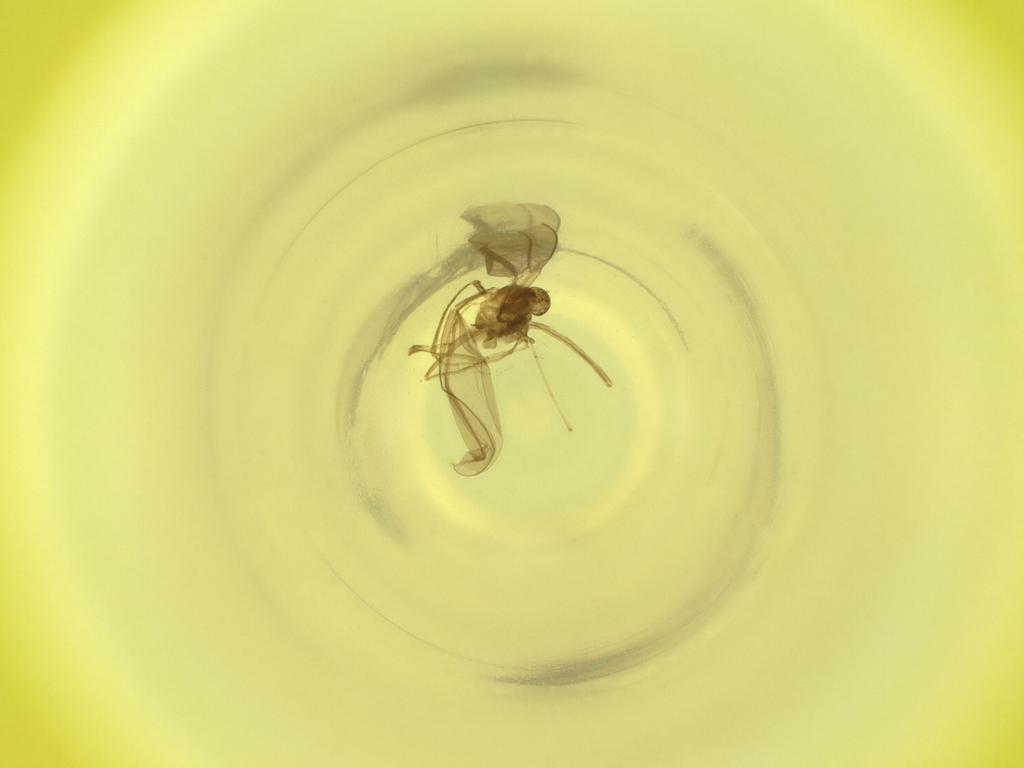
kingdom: Animalia
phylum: Arthropoda
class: Insecta
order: Diptera
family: Cecidomyiidae
